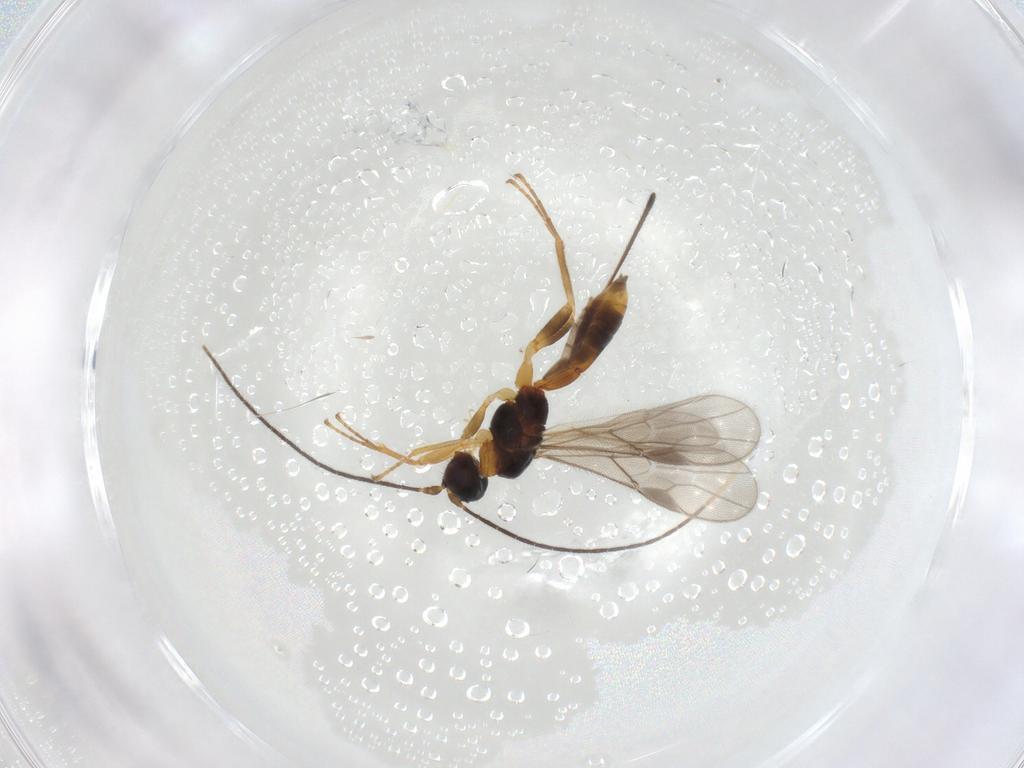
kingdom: Animalia
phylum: Arthropoda
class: Insecta
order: Hymenoptera
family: Braconidae
